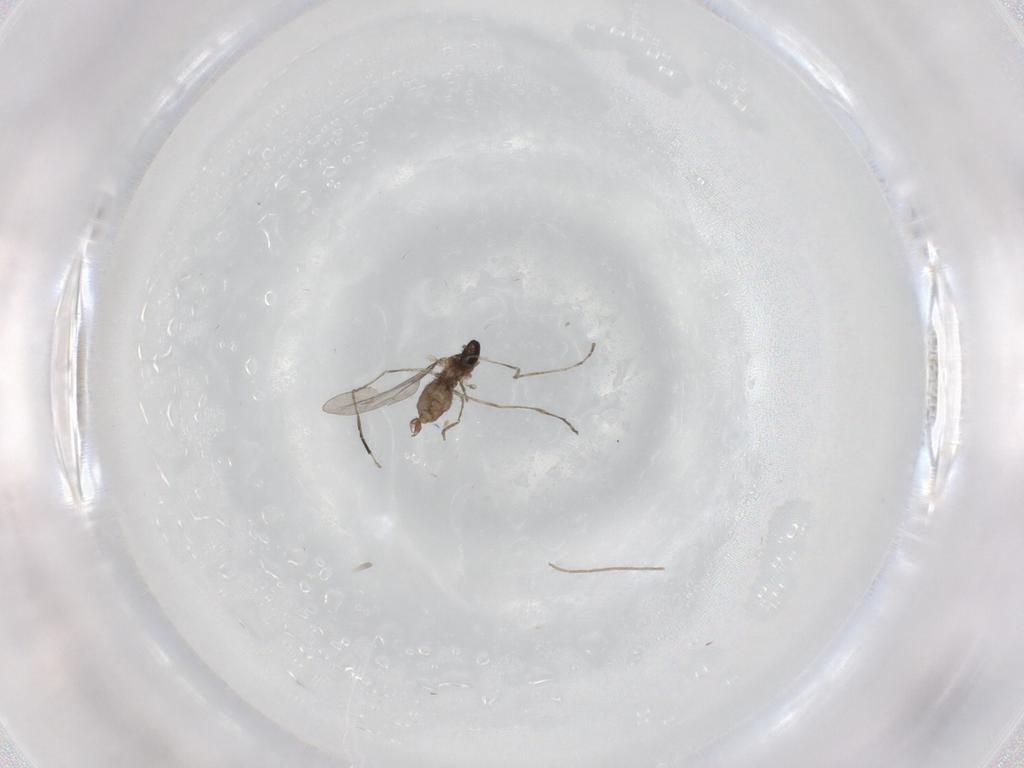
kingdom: Animalia
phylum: Arthropoda
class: Insecta
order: Diptera
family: Cecidomyiidae
